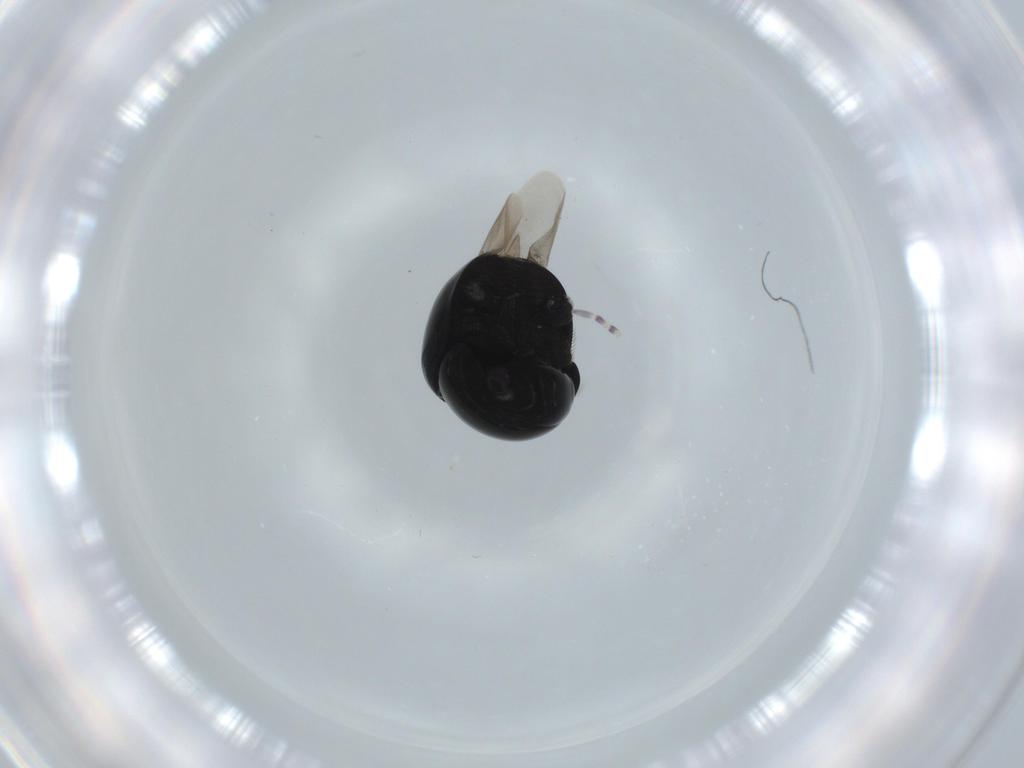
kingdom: Animalia
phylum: Arthropoda
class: Insecta
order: Coleoptera
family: Cybocephalidae
